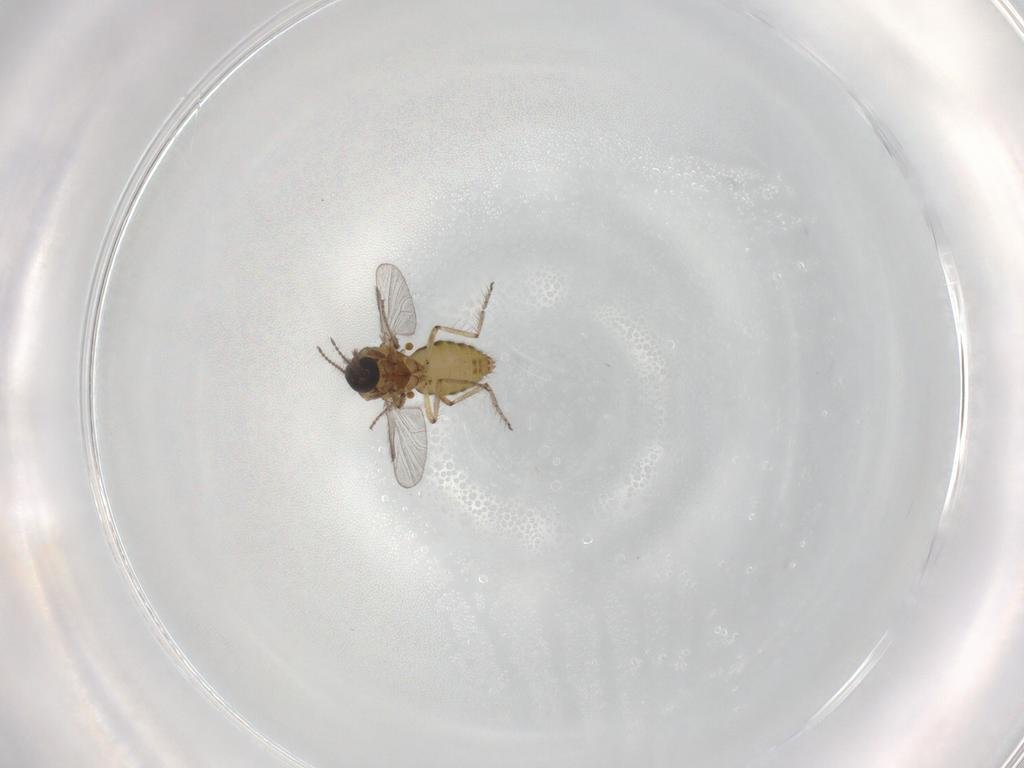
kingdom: Animalia
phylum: Arthropoda
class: Insecta
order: Diptera
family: Ceratopogonidae
